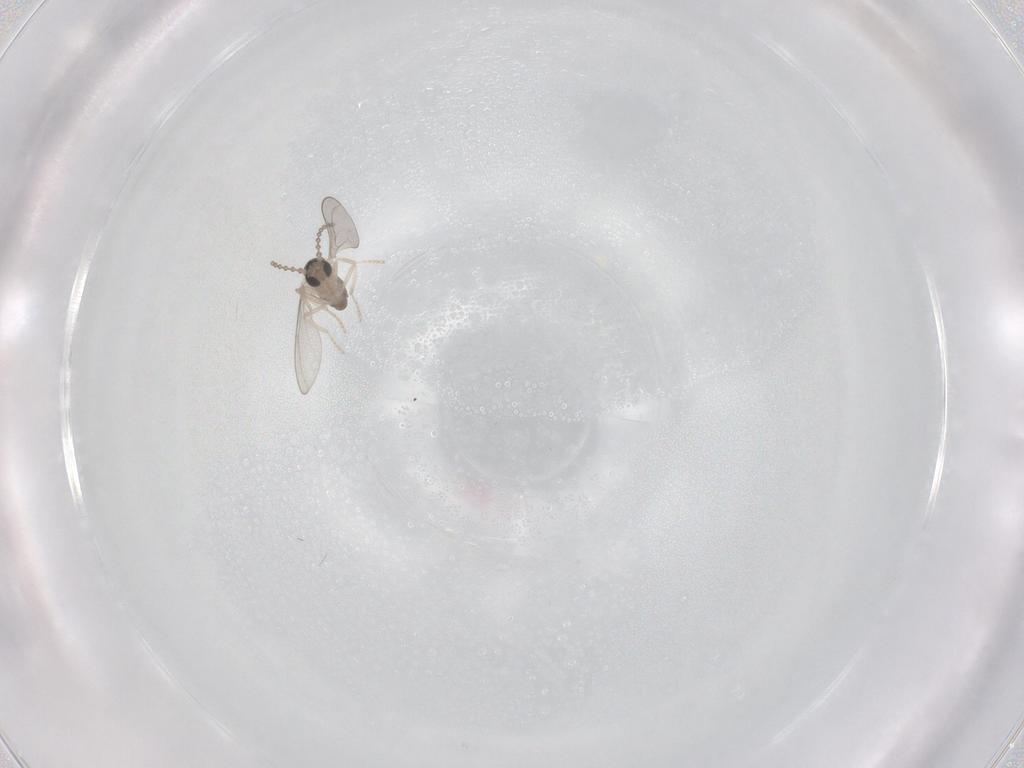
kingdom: Animalia
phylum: Arthropoda
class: Insecta
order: Diptera
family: Cecidomyiidae
